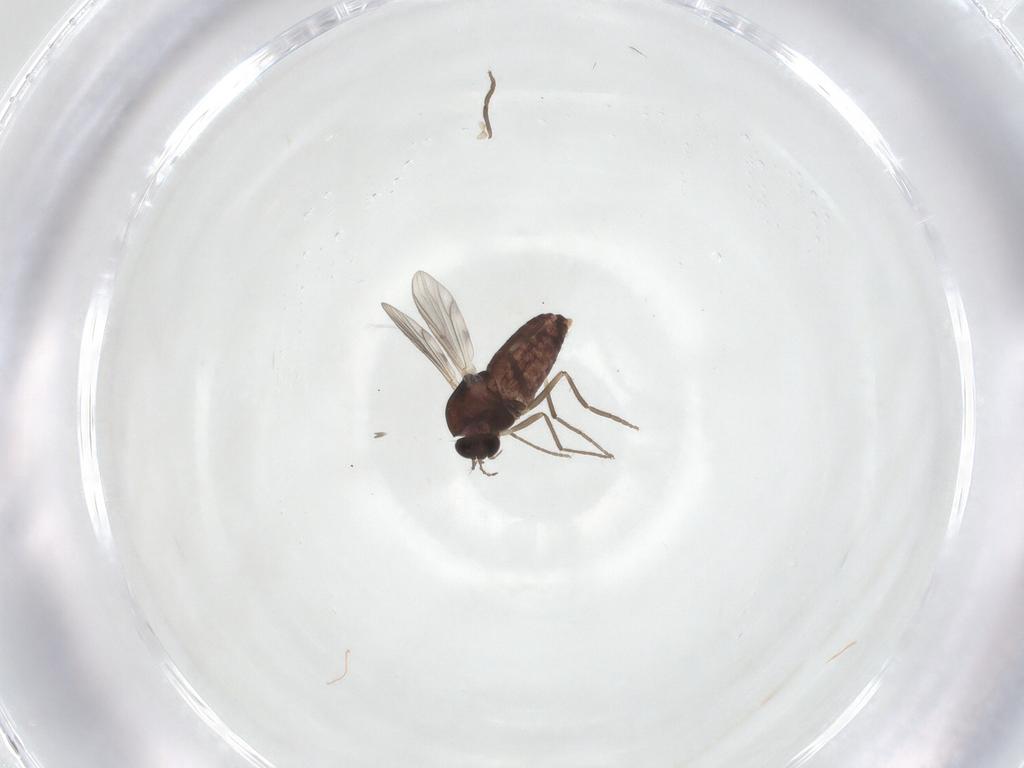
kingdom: Animalia
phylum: Arthropoda
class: Insecta
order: Diptera
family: Chironomidae
